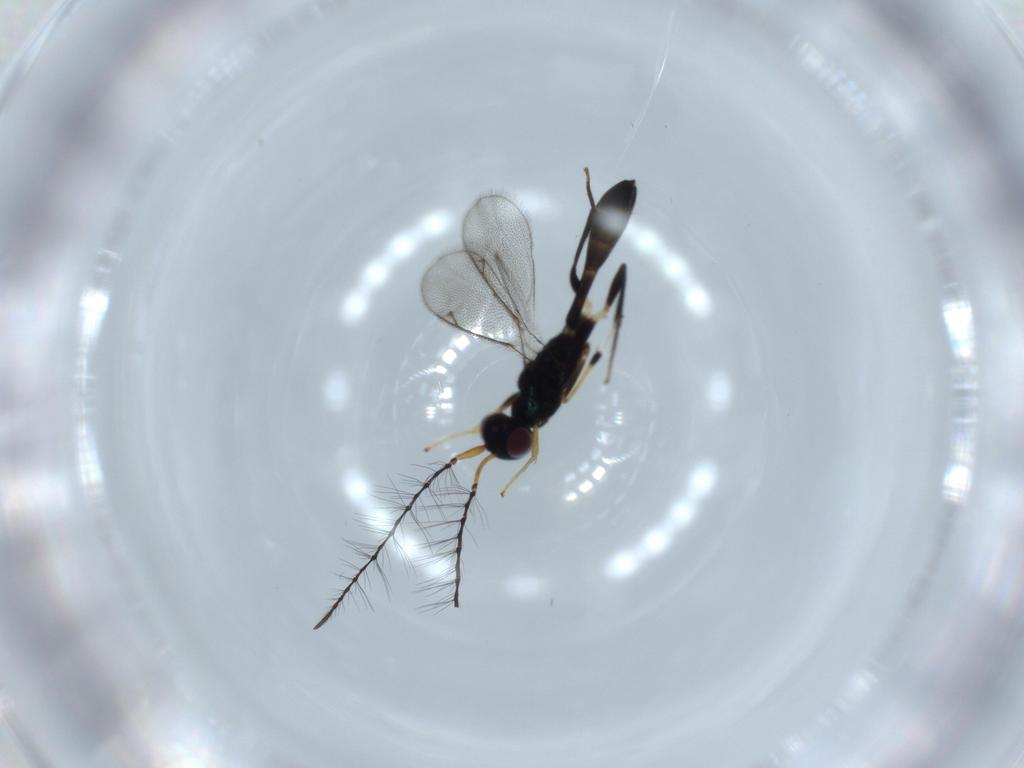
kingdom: Animalia
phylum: Arthropoda
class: Insecta
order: Hymenoptera
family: Eupelmidae
